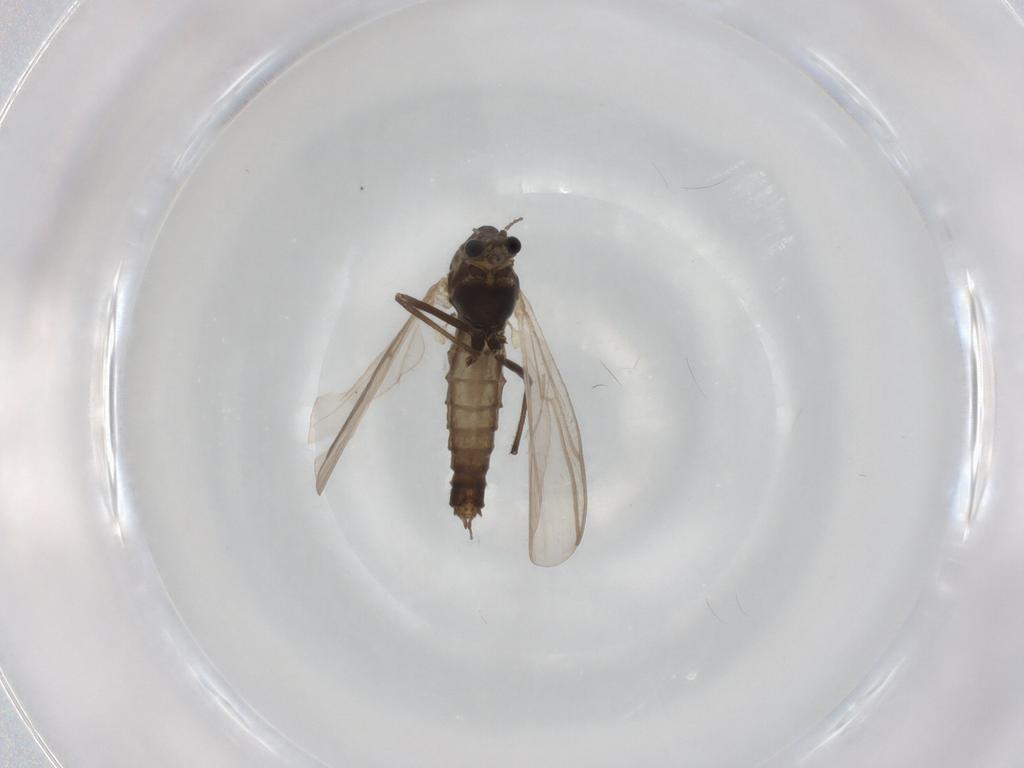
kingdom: Animalia
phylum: Arthropoda
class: Insecta
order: Diptera
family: Chironomidae
